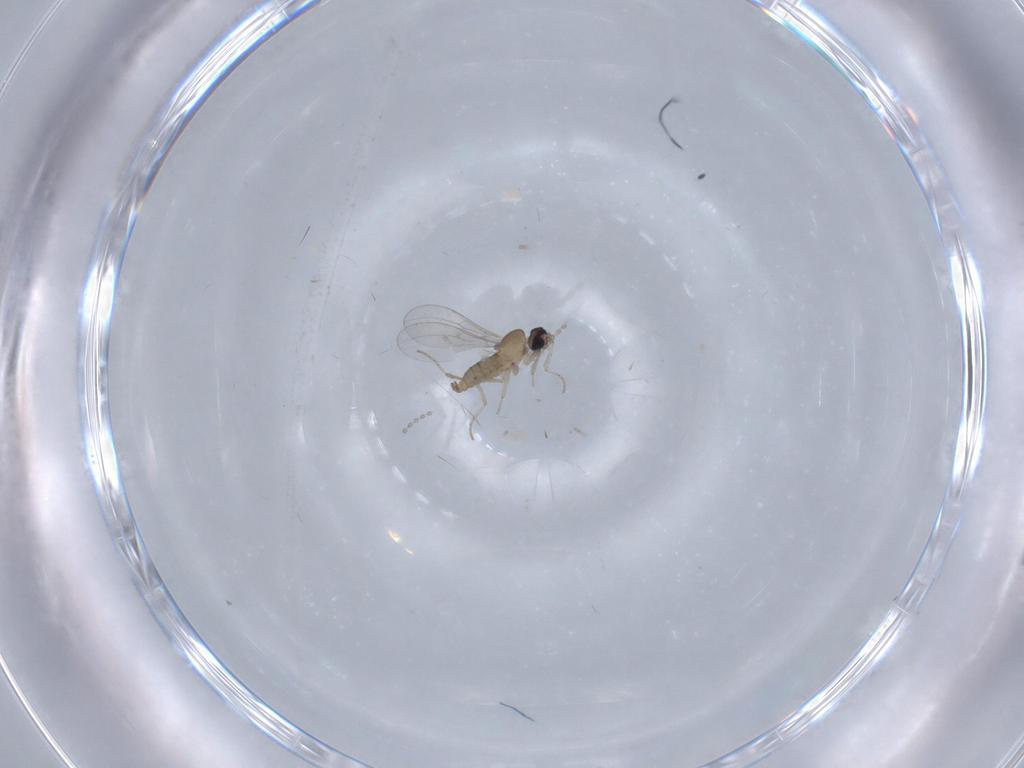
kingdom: Animalia
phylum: Arthropoda
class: Insecta
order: Diptera
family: Cecidomyiidae
